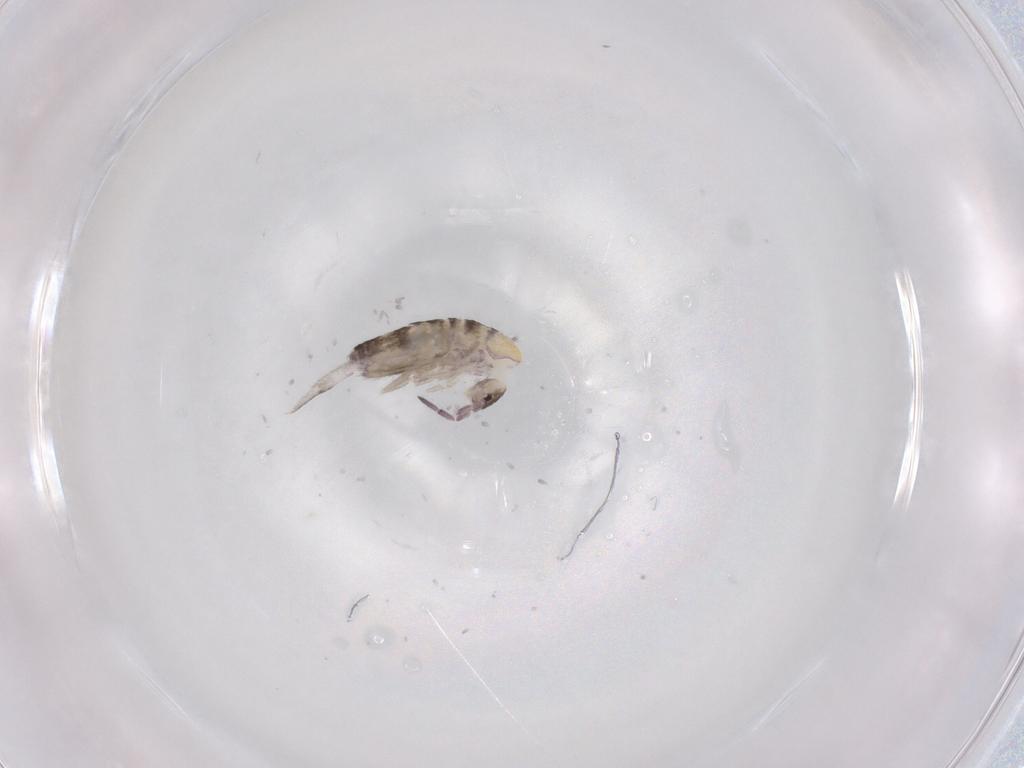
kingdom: Animalia
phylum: Arthropoda
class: Collembola
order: Entomobryomorpha
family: Entomobryidae
